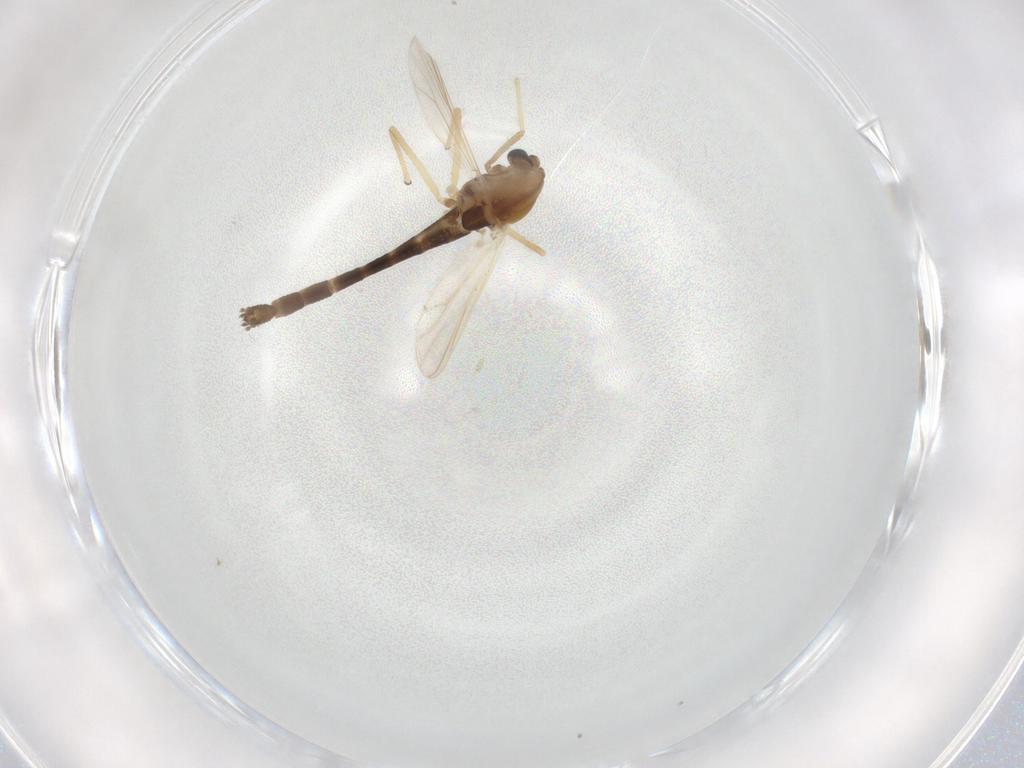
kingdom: Animalia
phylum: Arthropoda
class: Insecta
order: Diptera
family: Chironomidae
